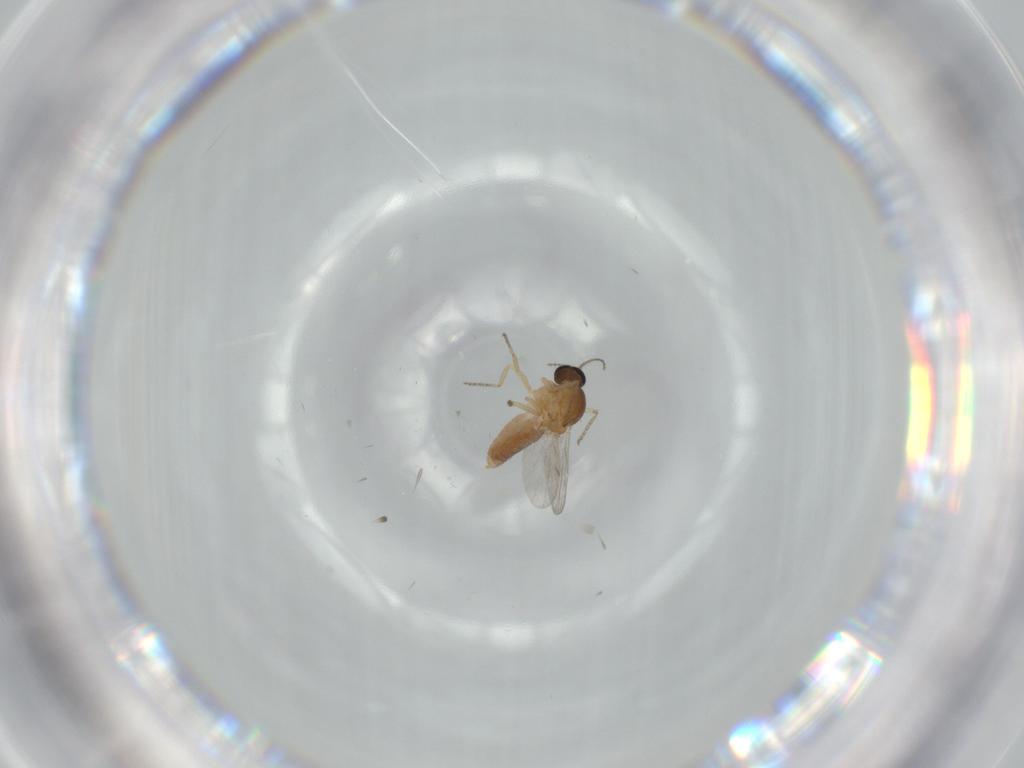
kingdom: Animalia
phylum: Arthropoda
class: Insecta
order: Diptera
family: Ceratopogonidae
